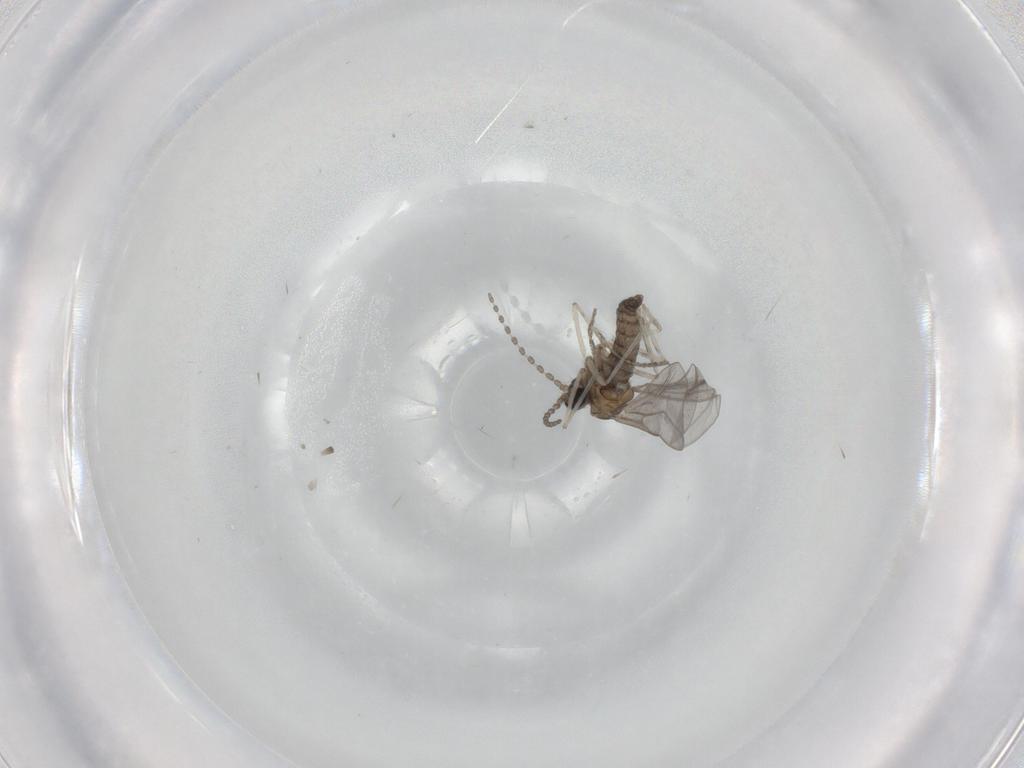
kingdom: Animalia
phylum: Arthropoda
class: Insecta
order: Diptera
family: Cecidomyiidae
